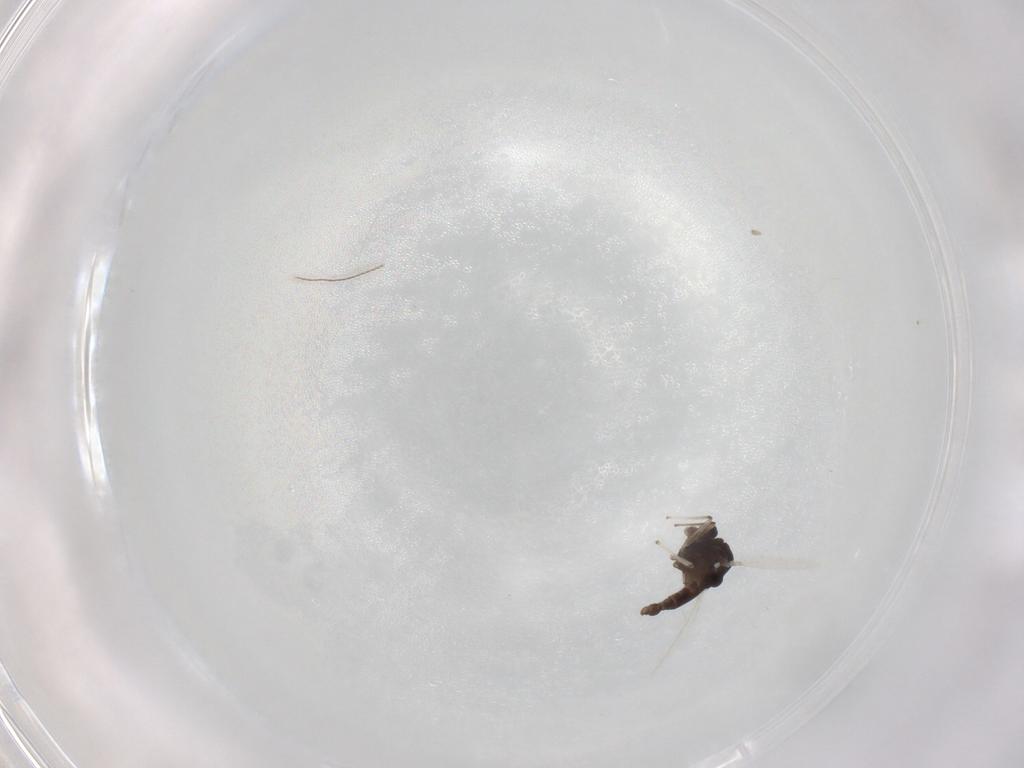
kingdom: Animalia
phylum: Arthropoda
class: Insecta
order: Diptera
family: Chironomidae
